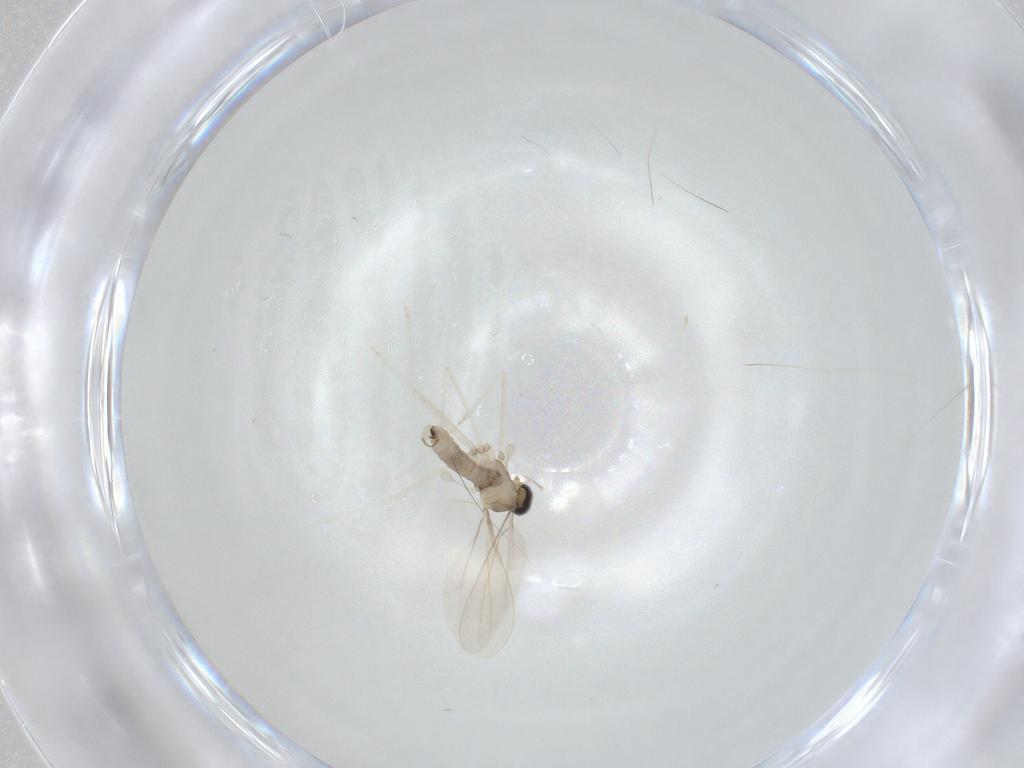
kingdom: Animalia
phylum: Arthropoda
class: Insecta
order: Diptera
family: Sciaridae
